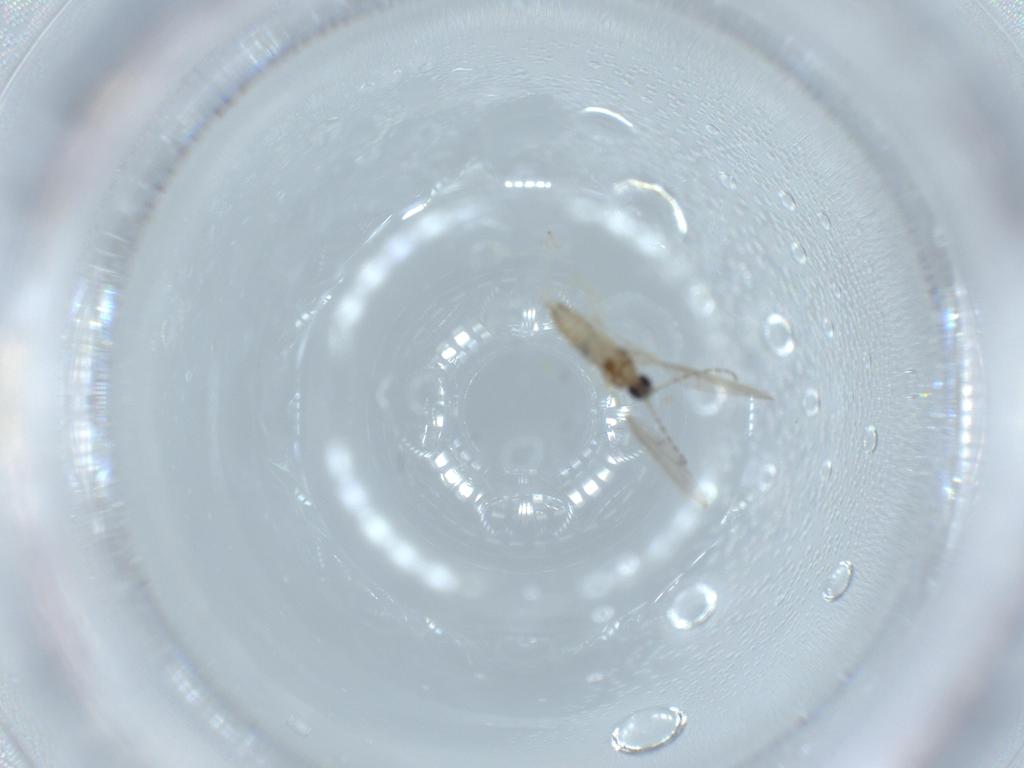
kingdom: Animalia
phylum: Arthropoda
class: Insecta
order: Diptera
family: Cecidomyiidae
